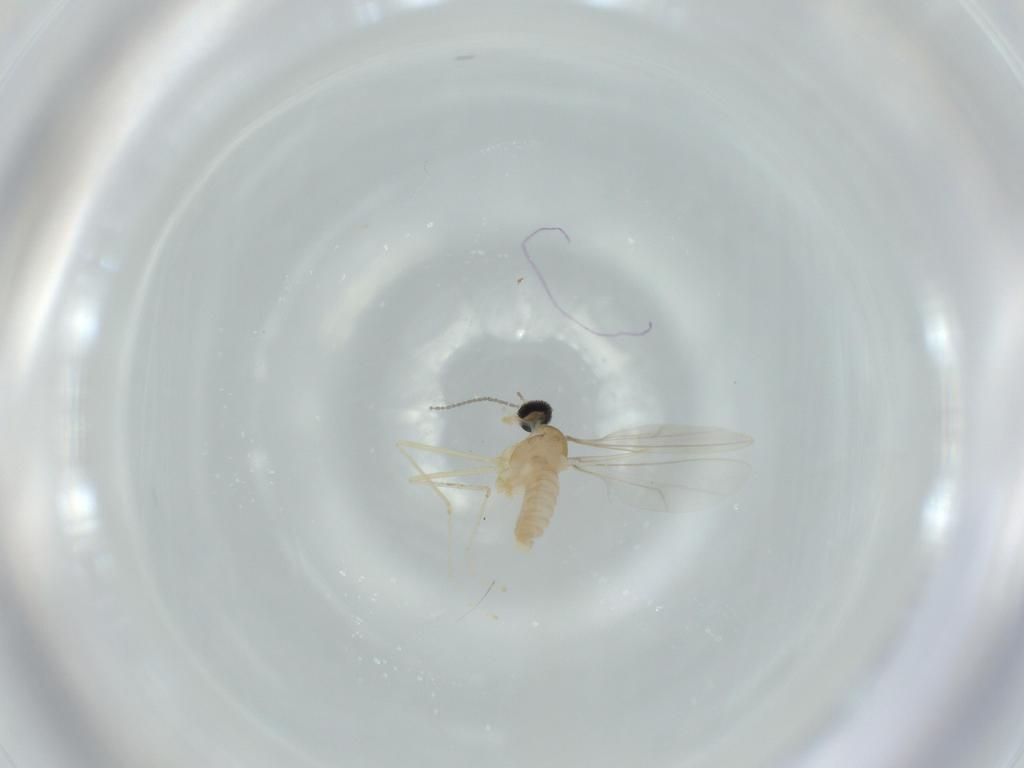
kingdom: Animalia
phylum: Arthropoda
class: Insecta
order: Diptera
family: Cecidomyiidae
